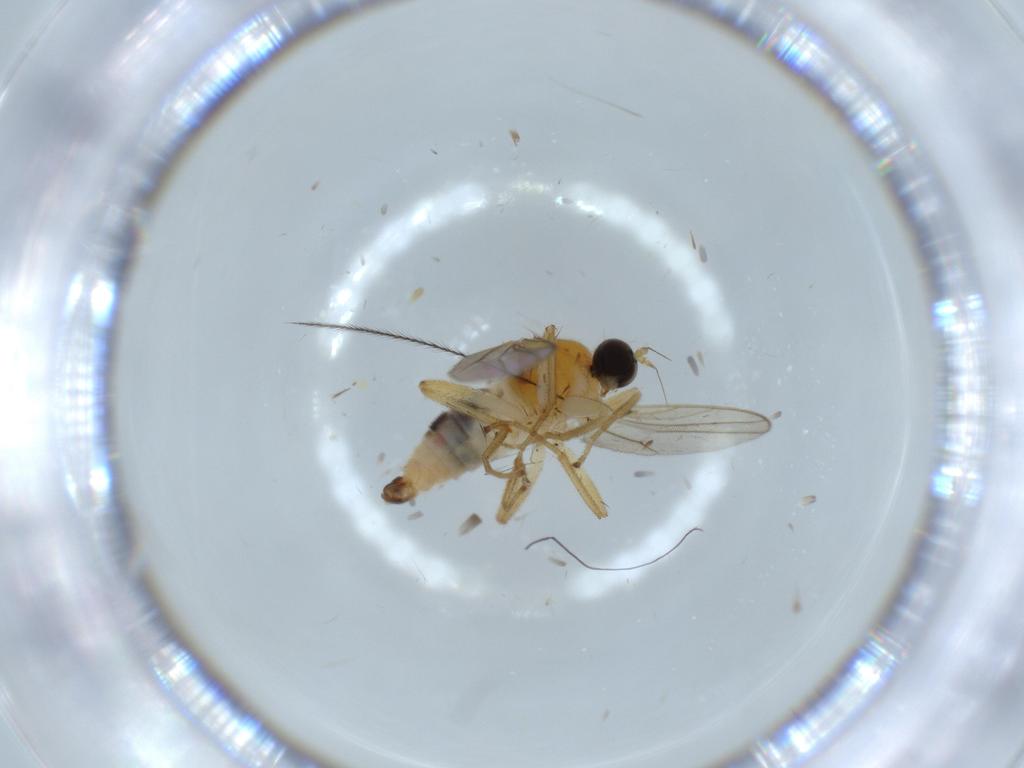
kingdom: Animalia
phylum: Arthropoda
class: Insecta
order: Diptera
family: Hybotidae
